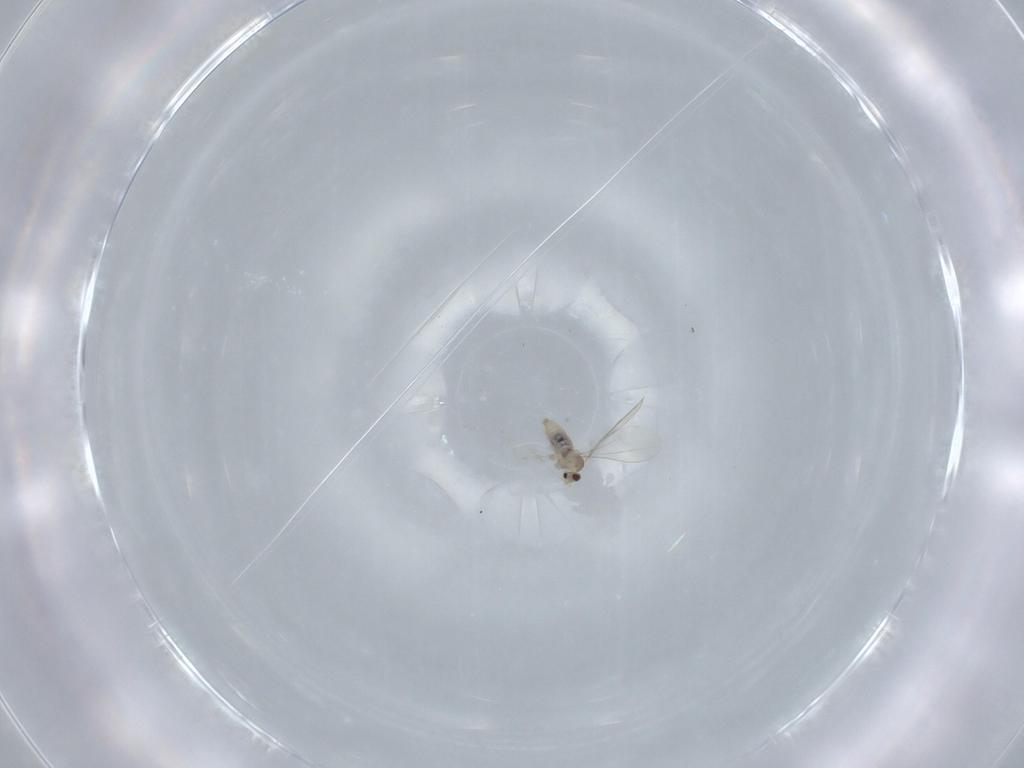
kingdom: Animalia
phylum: Arthropoda
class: Insecta
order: Diptera
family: Cecidomyiidae
